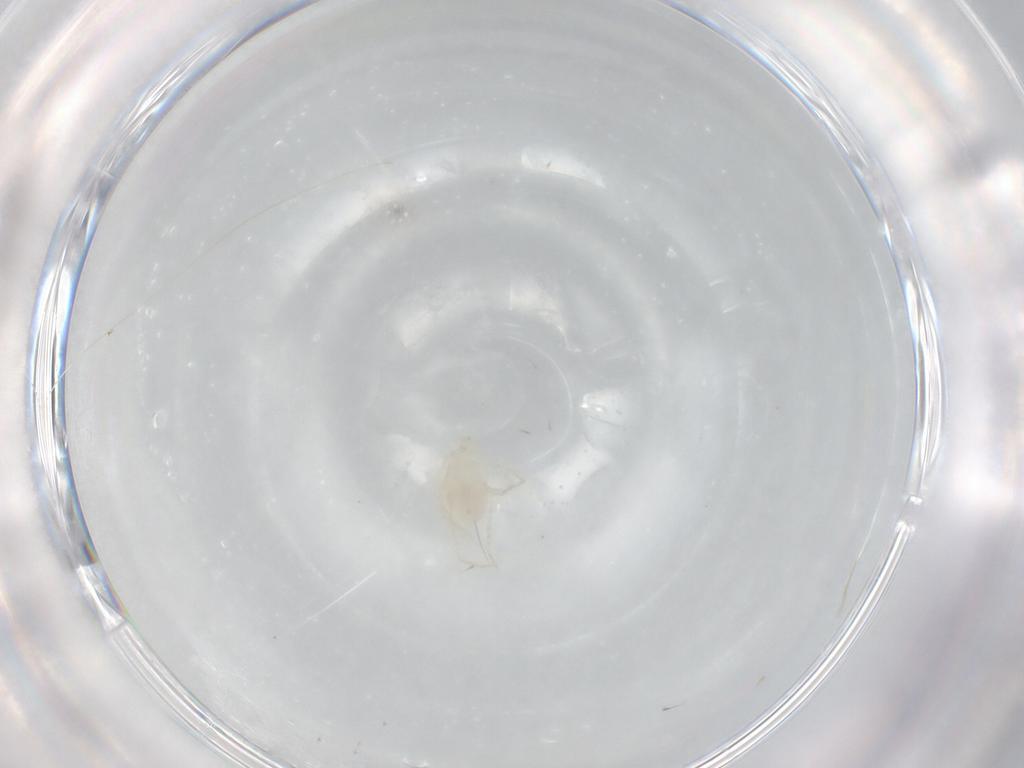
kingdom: Animalia
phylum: Arthropoda
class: Arachnida
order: Trombidiformes
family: Erythraeidae
